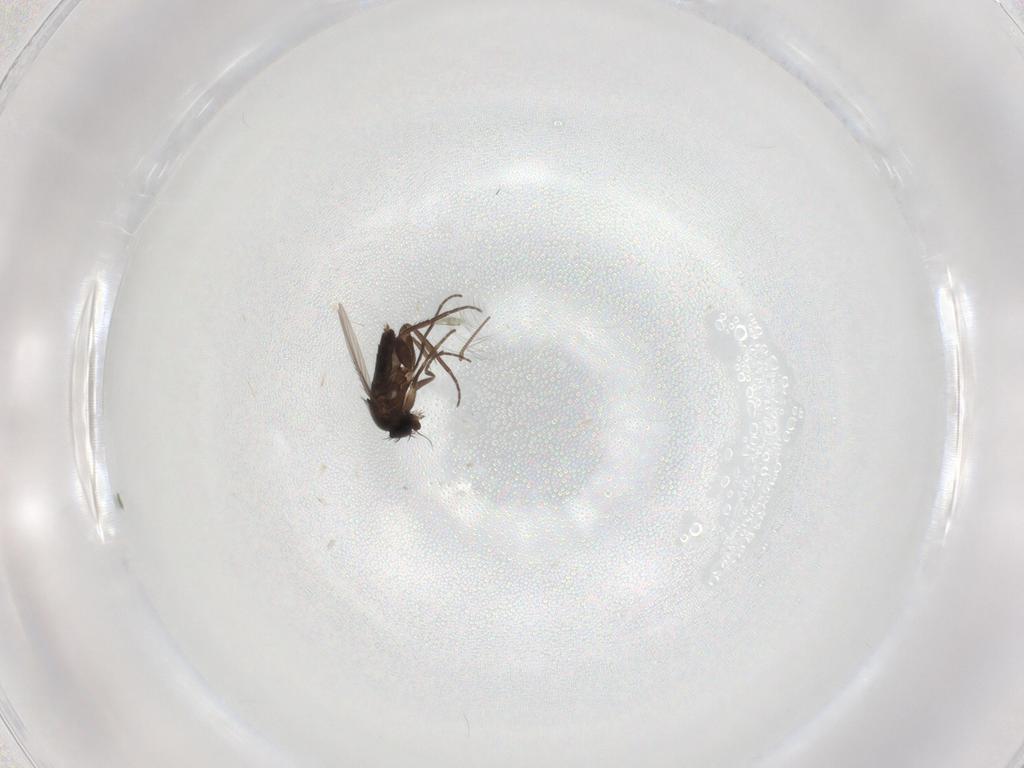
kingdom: Animalia
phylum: Arthropoda
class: Insecta
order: Diptera
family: Phoridae
